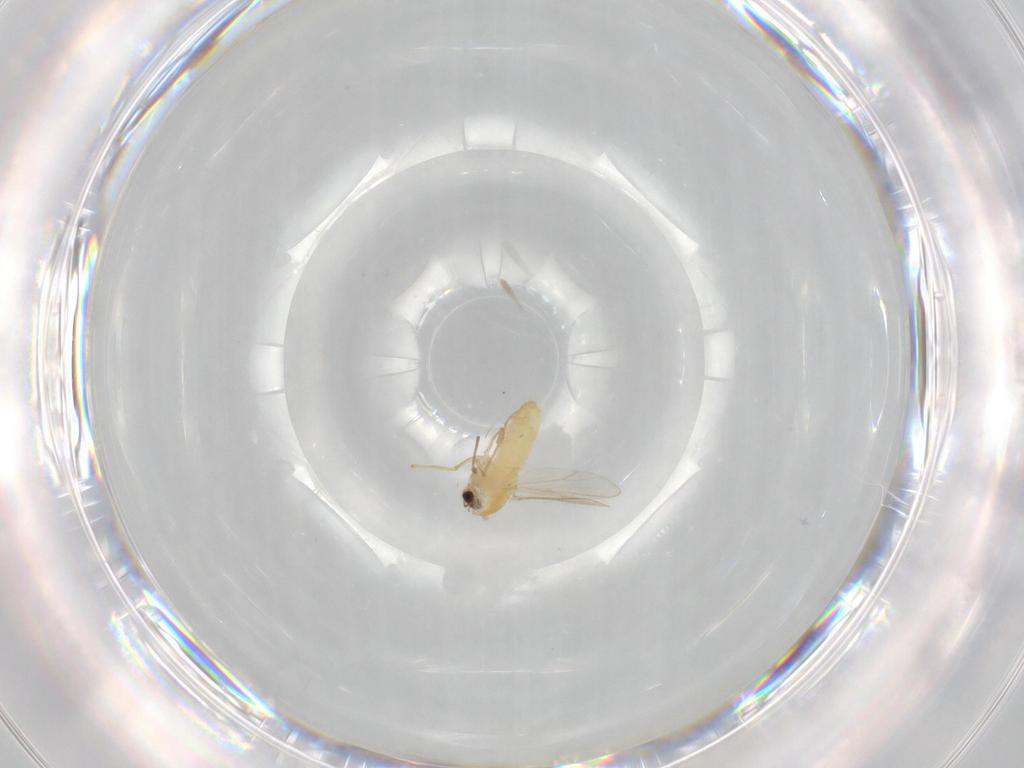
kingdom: Animalia
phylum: Arthropoda
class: Insecta
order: Diptera
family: Chironomidae
